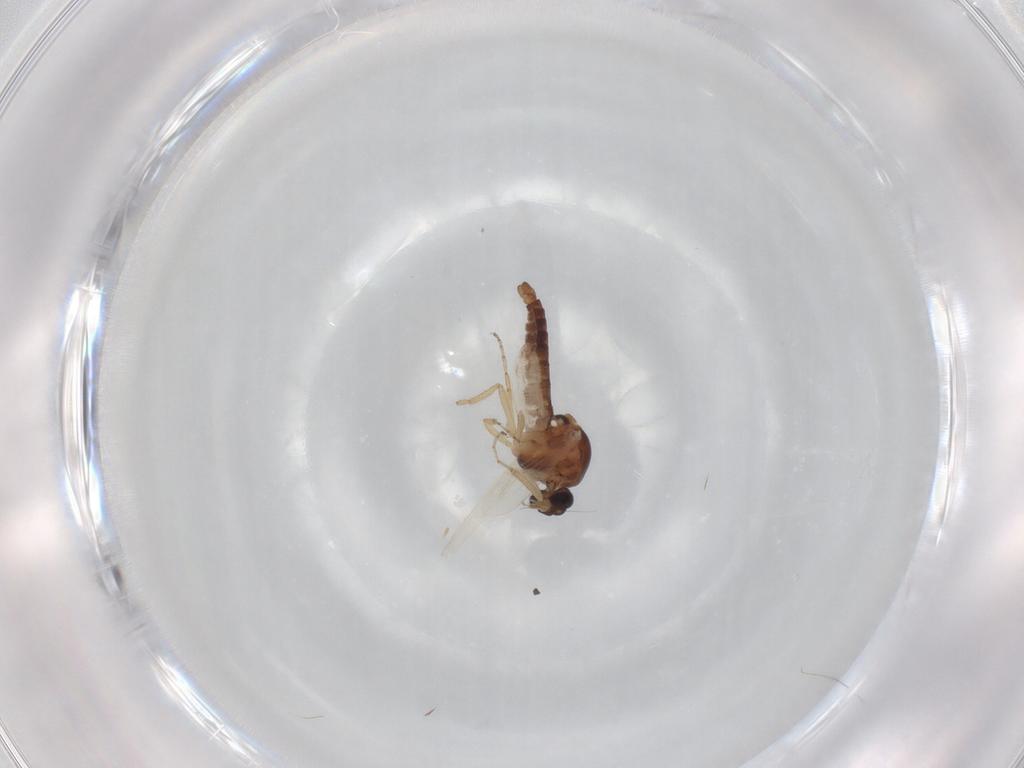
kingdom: Animalia
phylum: Arthropoda
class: Insecta
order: Diptera
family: Ceratopogonidae
